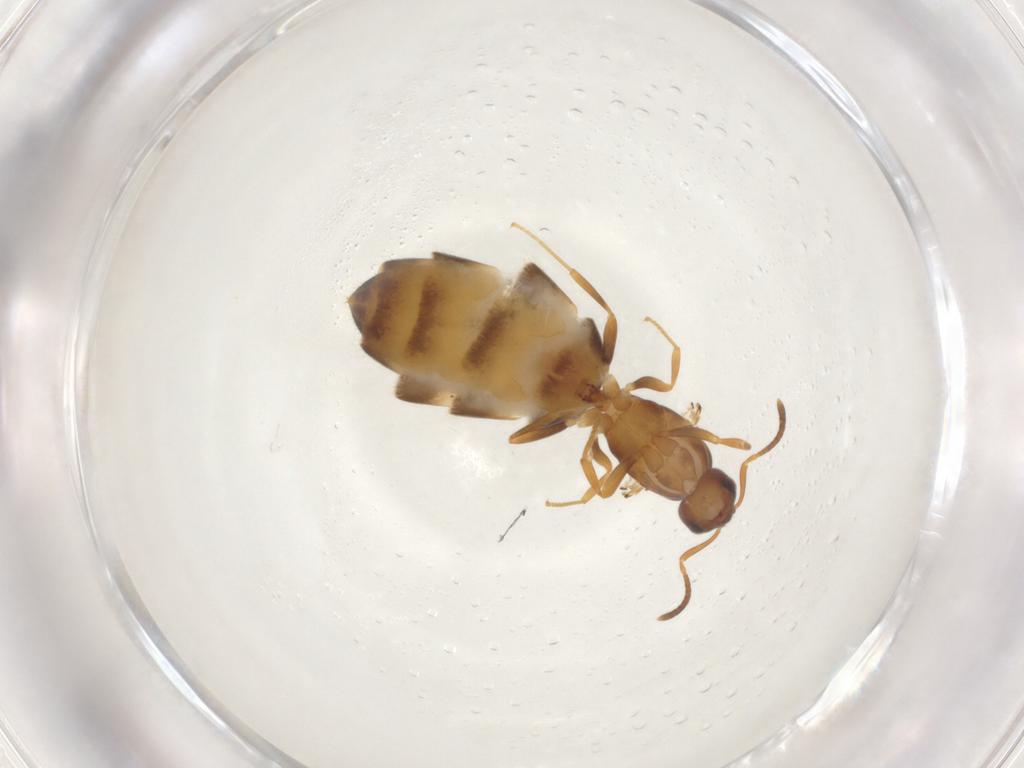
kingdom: Animalia
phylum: Arthropoda
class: Insecta
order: Hymenoptera
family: Formicidae
